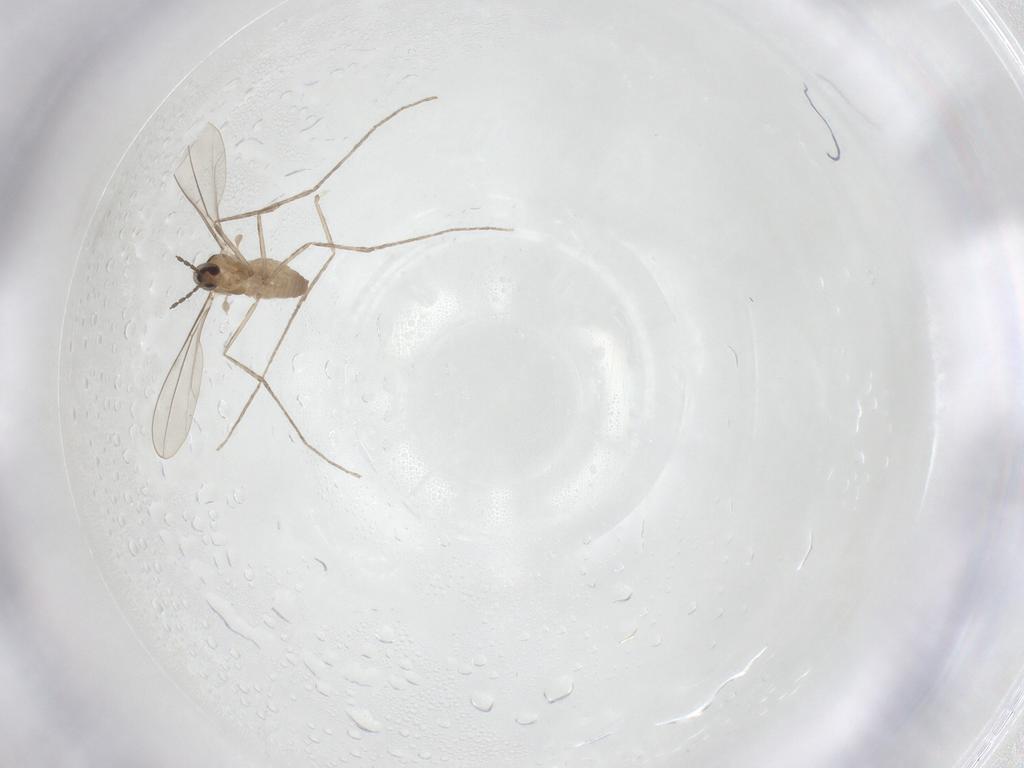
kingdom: Animalia
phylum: Arthropoda
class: Insecta
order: Diptera
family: Cecidomyiidae
